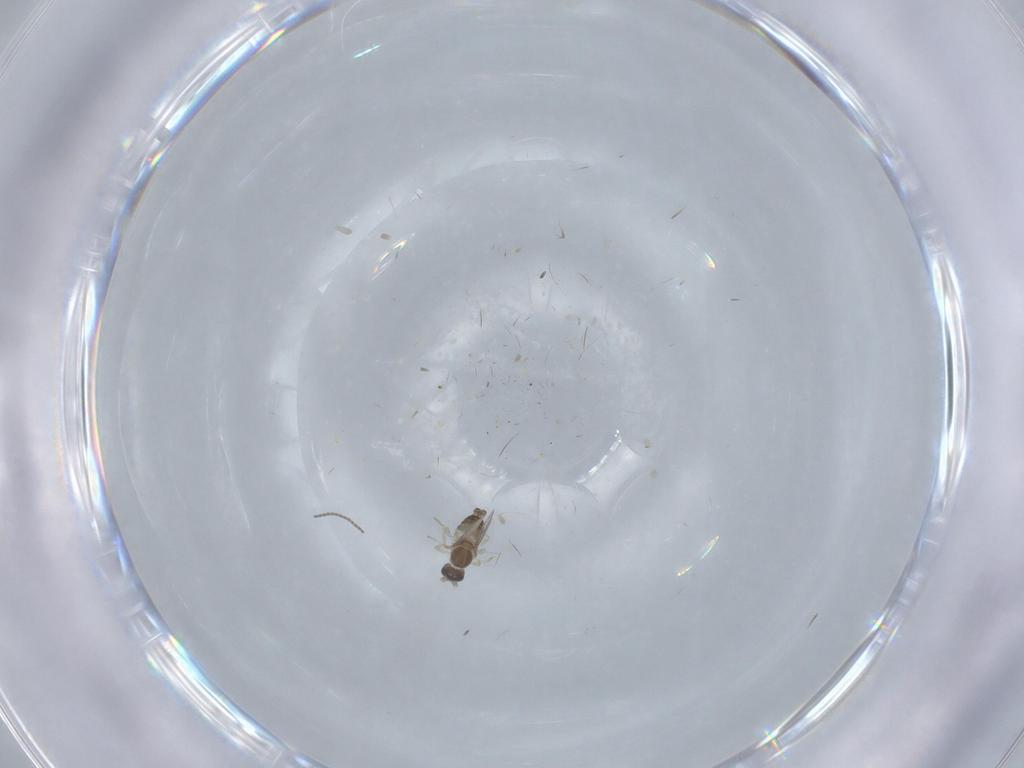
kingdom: Animalia
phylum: Arthropoda
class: Insecta
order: Diptera
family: Cecidomyiidae
